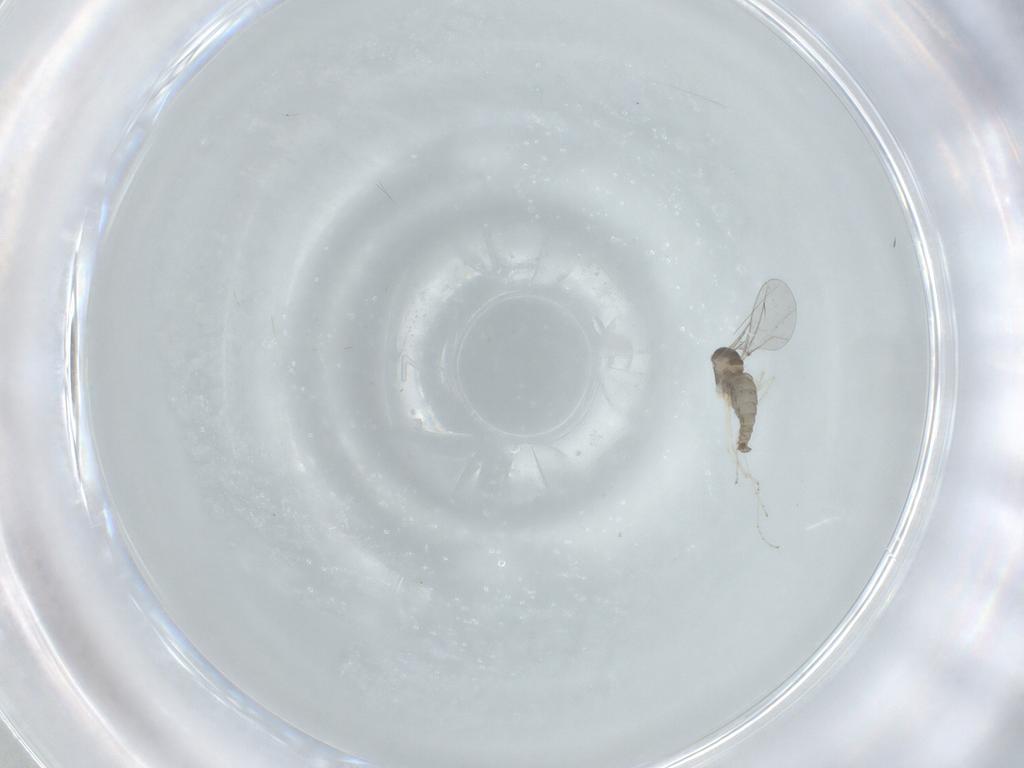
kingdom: Animalia
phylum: Arthropoda
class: Insecta
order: Diptera
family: Cecidomyiidae
